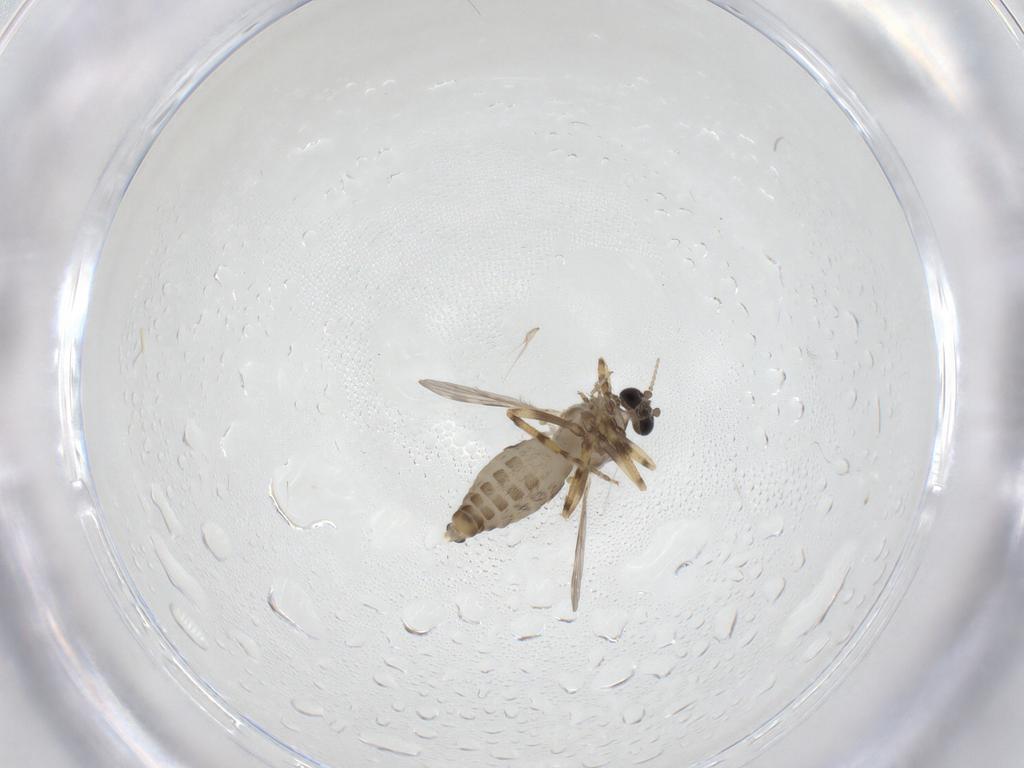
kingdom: Animalia
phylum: Arthropoda
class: Insecta
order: Diptera
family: Ceratopogonidae
